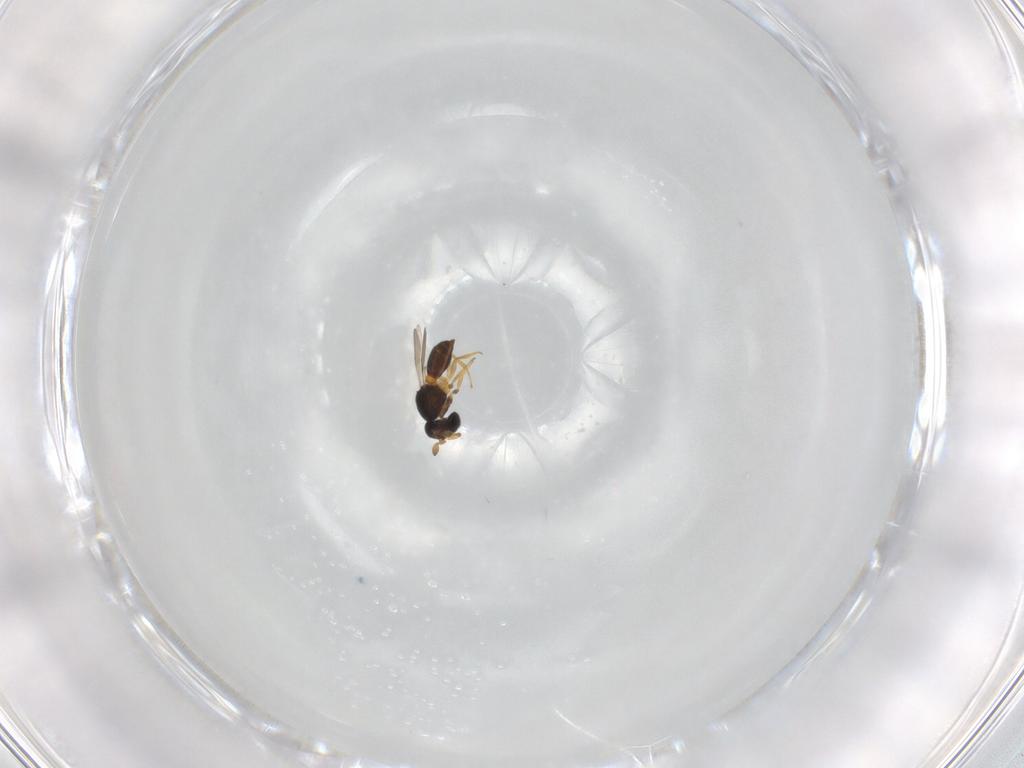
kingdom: Animalia
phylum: Arthropoda
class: Insecta
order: Hymenoptera
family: Scelionidae
